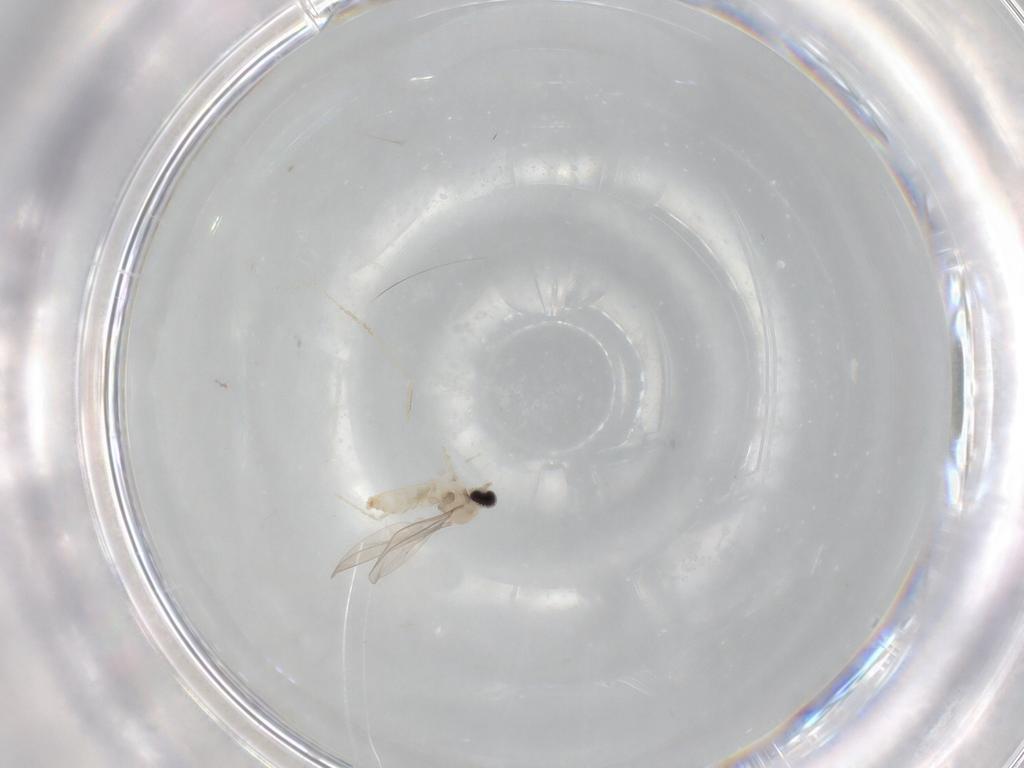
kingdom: Animalia
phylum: Arthropoda
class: Insecta
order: Diptera
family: Cecidomyiidae
